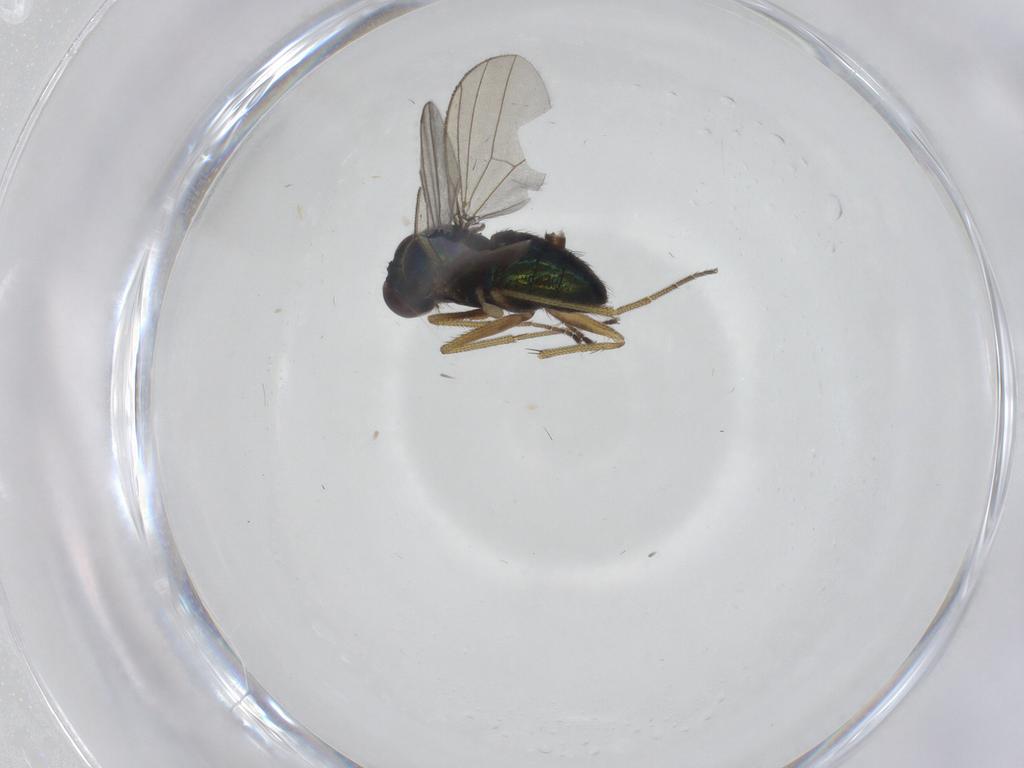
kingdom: Animalia
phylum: Arthropoda
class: Insecta
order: Diptera
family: Dolichopodidae
